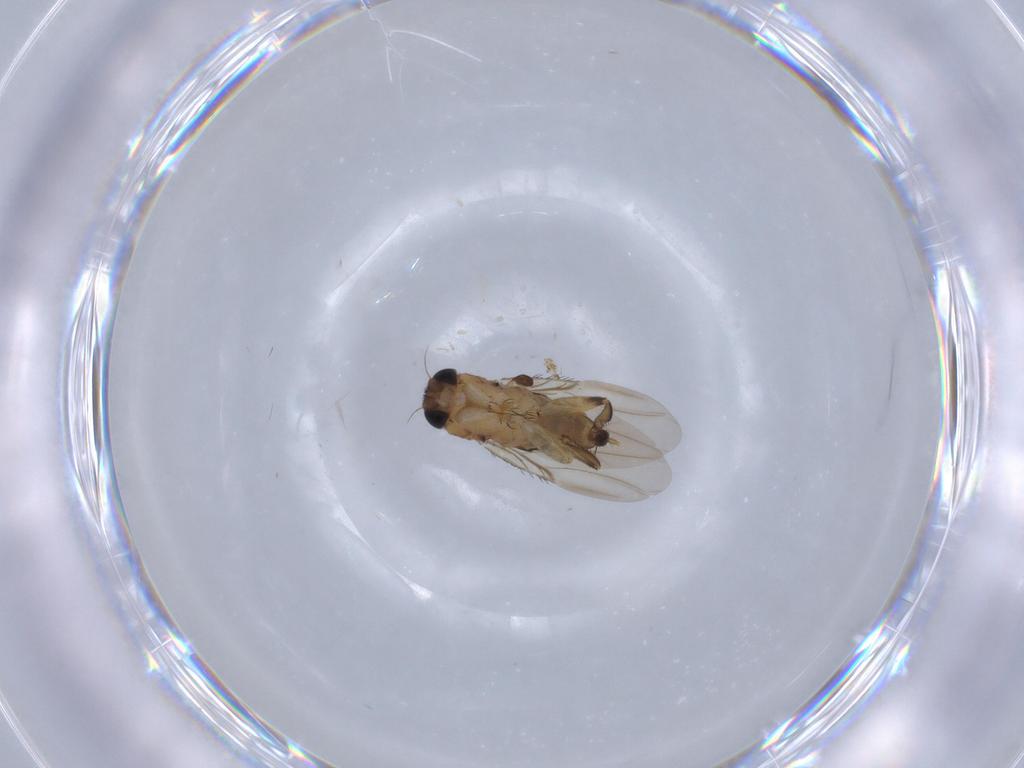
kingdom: Animalia
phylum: Arthropoda
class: Insecta
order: Diptera
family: Phoridae
